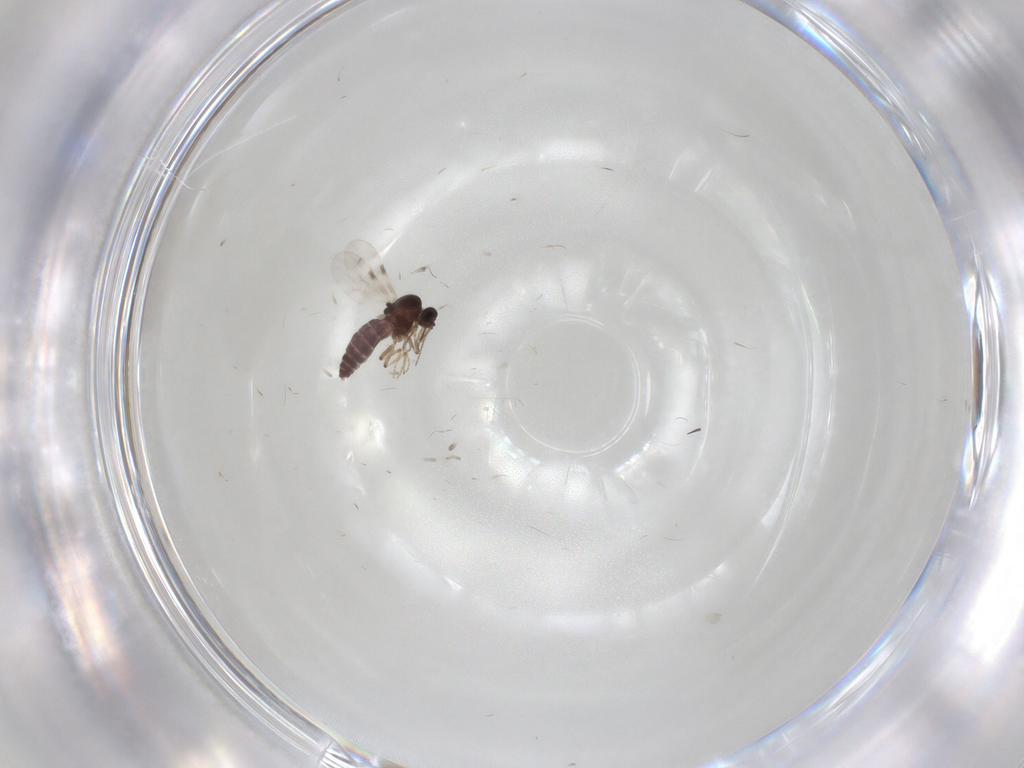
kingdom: Animalia
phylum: Arthropoda
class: Insecta
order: Diptera
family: Chironomidae
